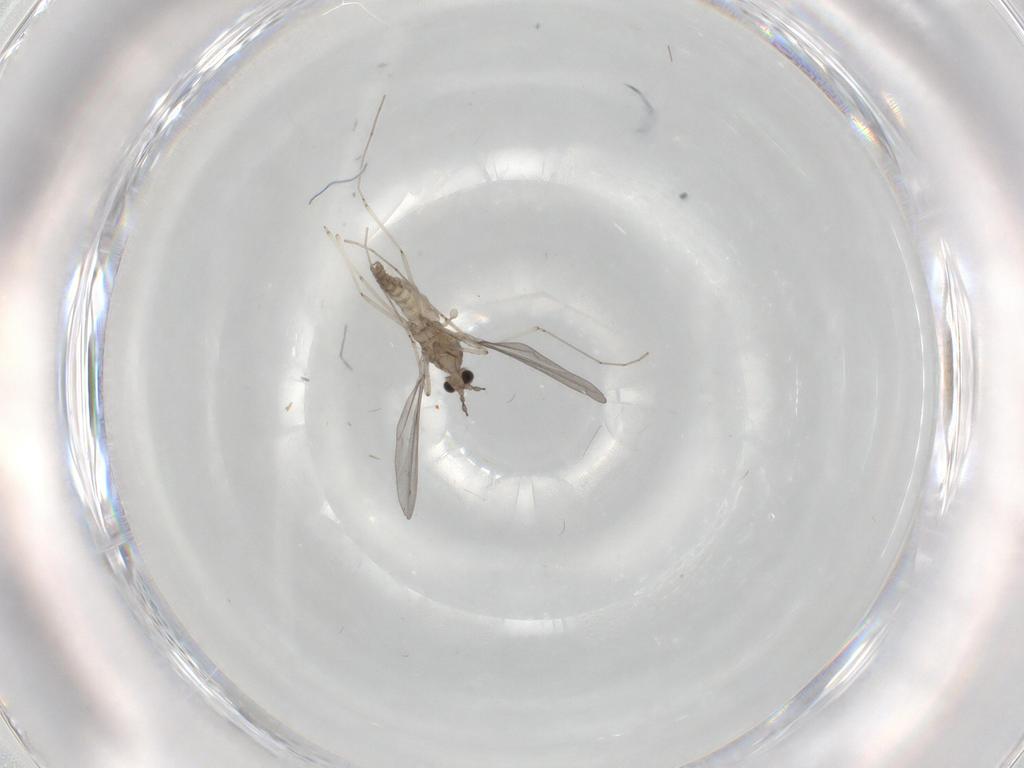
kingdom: Animalia
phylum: Arthropoda
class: Insecta
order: Diptera
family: Cecidomyiidae
